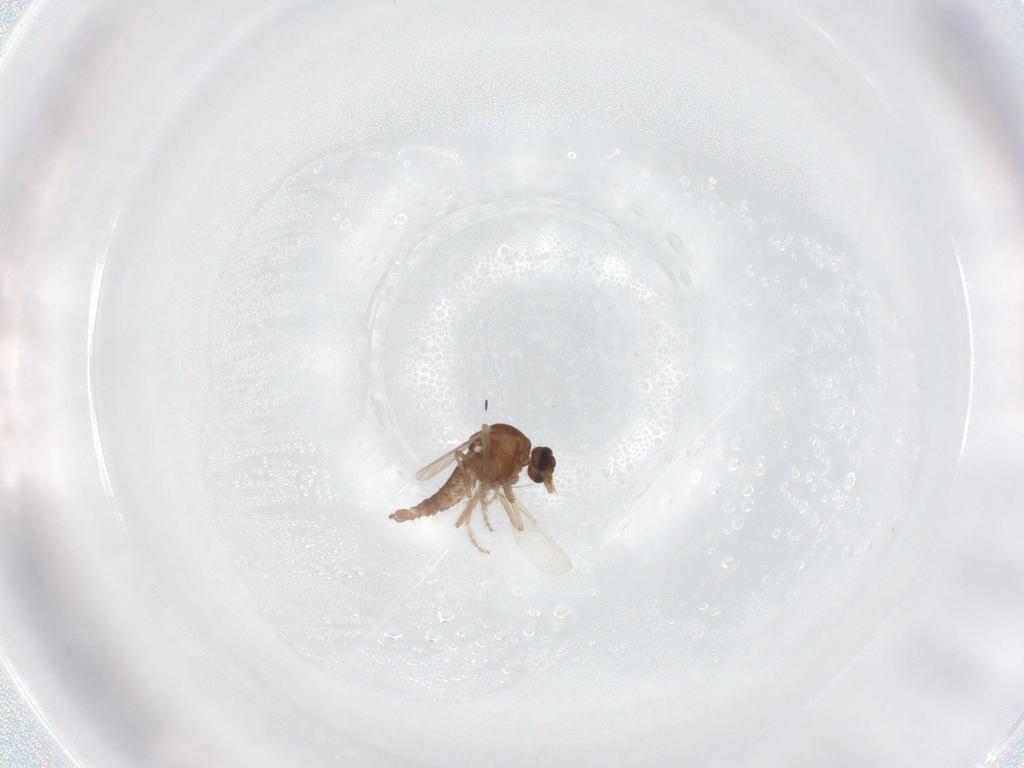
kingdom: Animalia
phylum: Arthropoda
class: Insecta
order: Diptera
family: Ceratopogonidae
